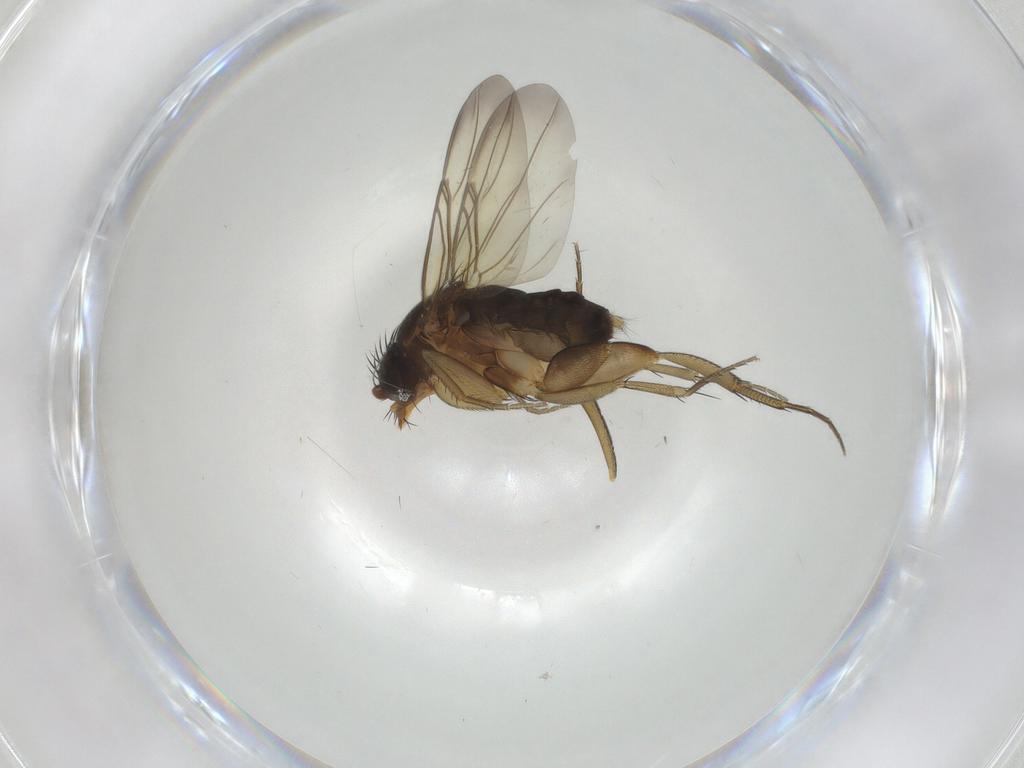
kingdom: Animalia
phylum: Arthropoda
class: Insecta
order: Diptera
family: Phoridae
